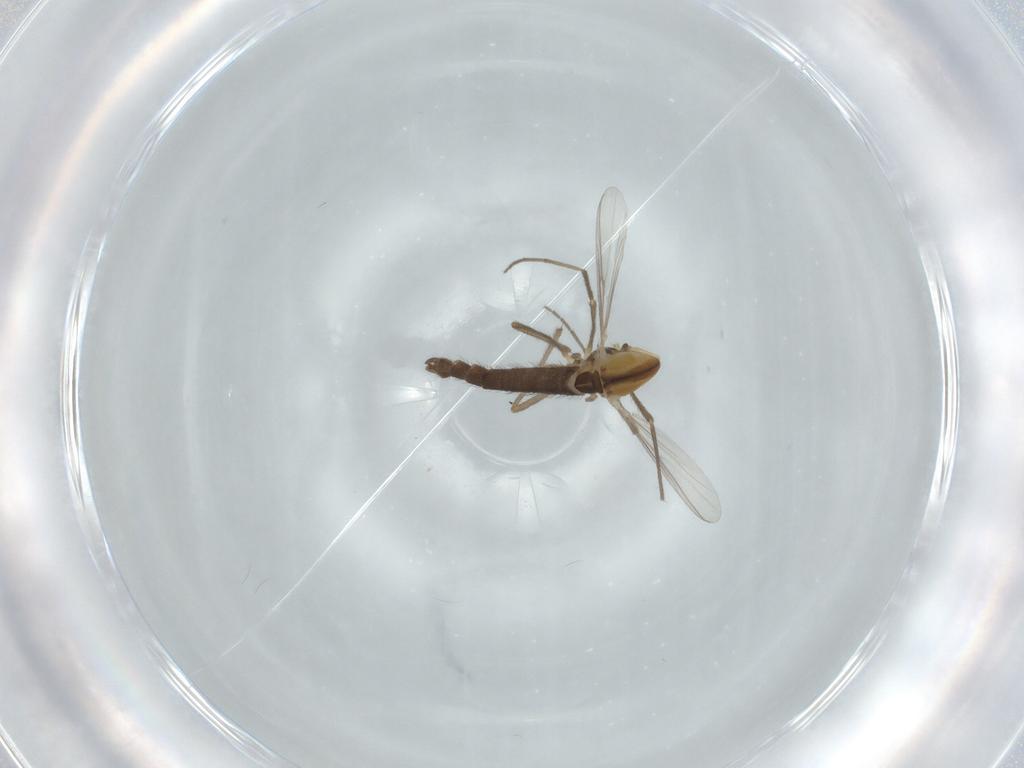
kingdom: Animalia
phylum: Arthropoda
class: Insecta
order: Diptera
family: Chironomidae
